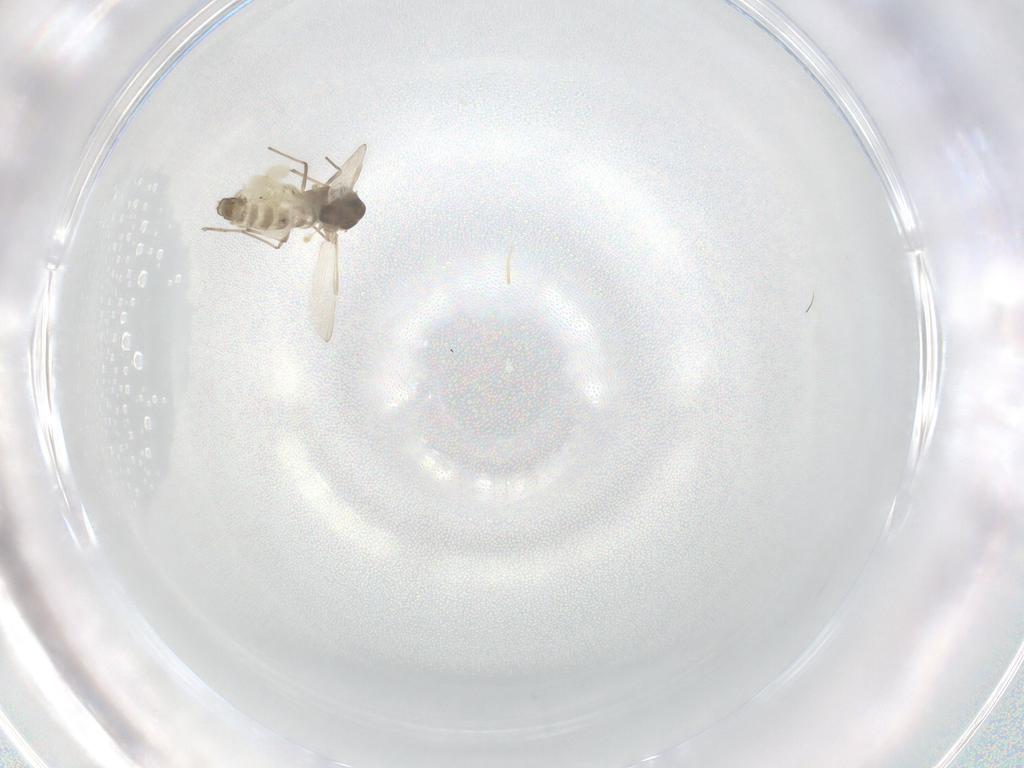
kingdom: Animalia
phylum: Arthropoda
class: Insecta
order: Diptera
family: Chironomidae
